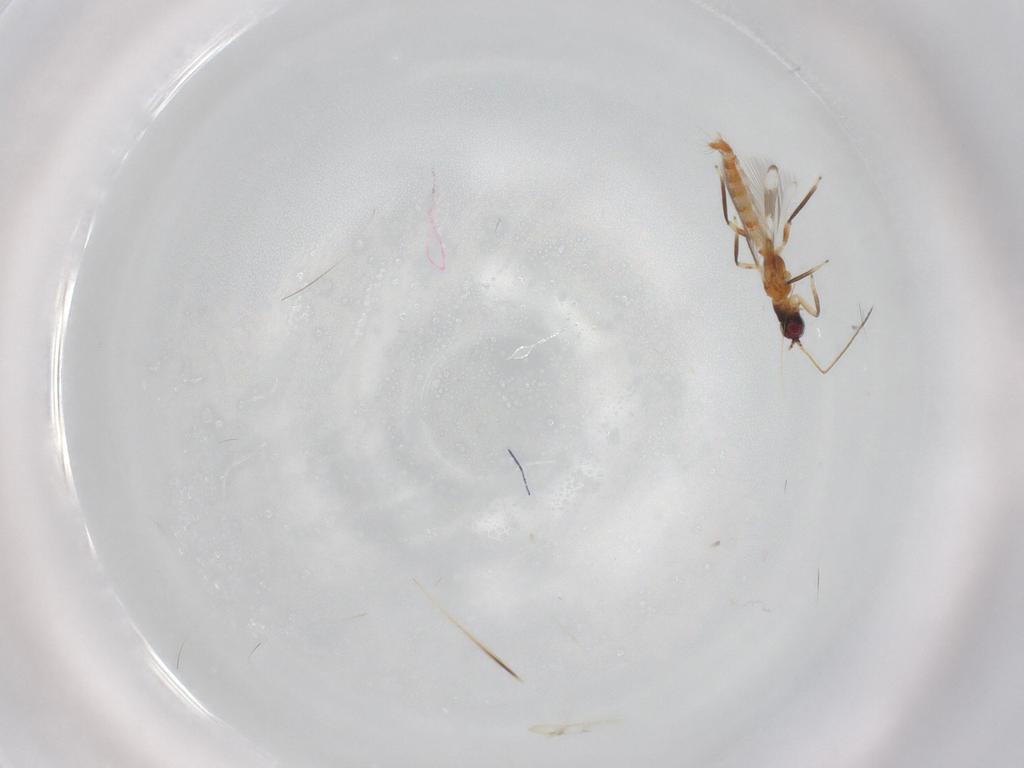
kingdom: Animalia
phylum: Arthropoda
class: Insecta
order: Thysanoptera
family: Aeolothripidae
